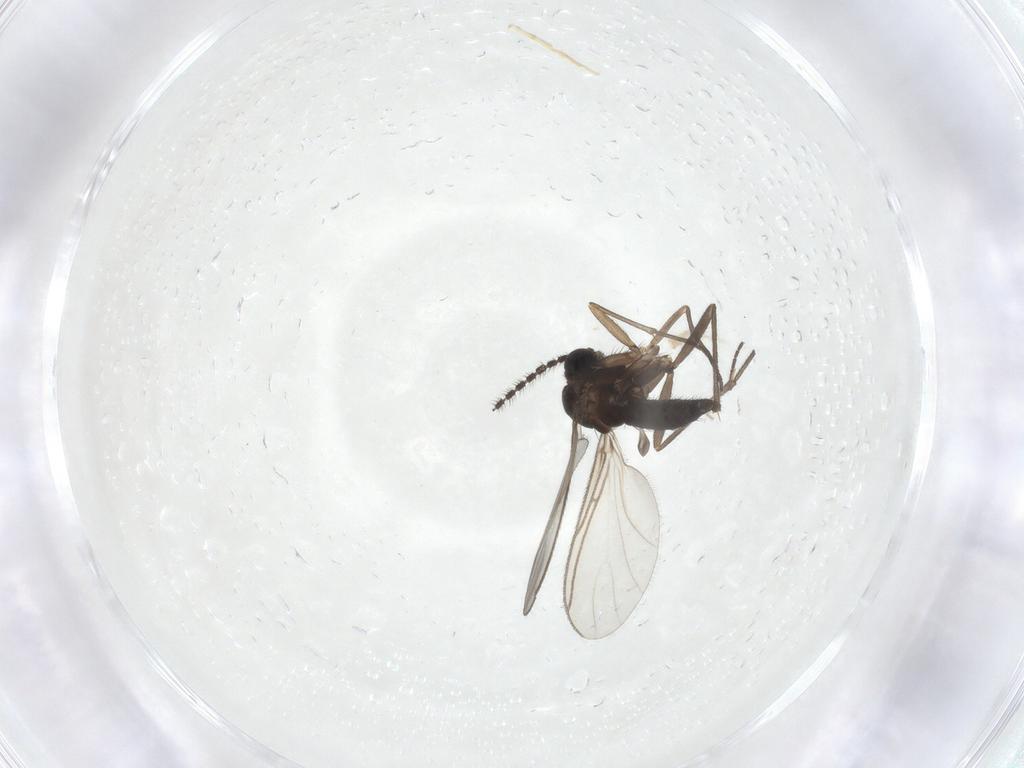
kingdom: Animalia
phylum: Arthropoda
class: Insecta
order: Diptera
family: Sciaridae
